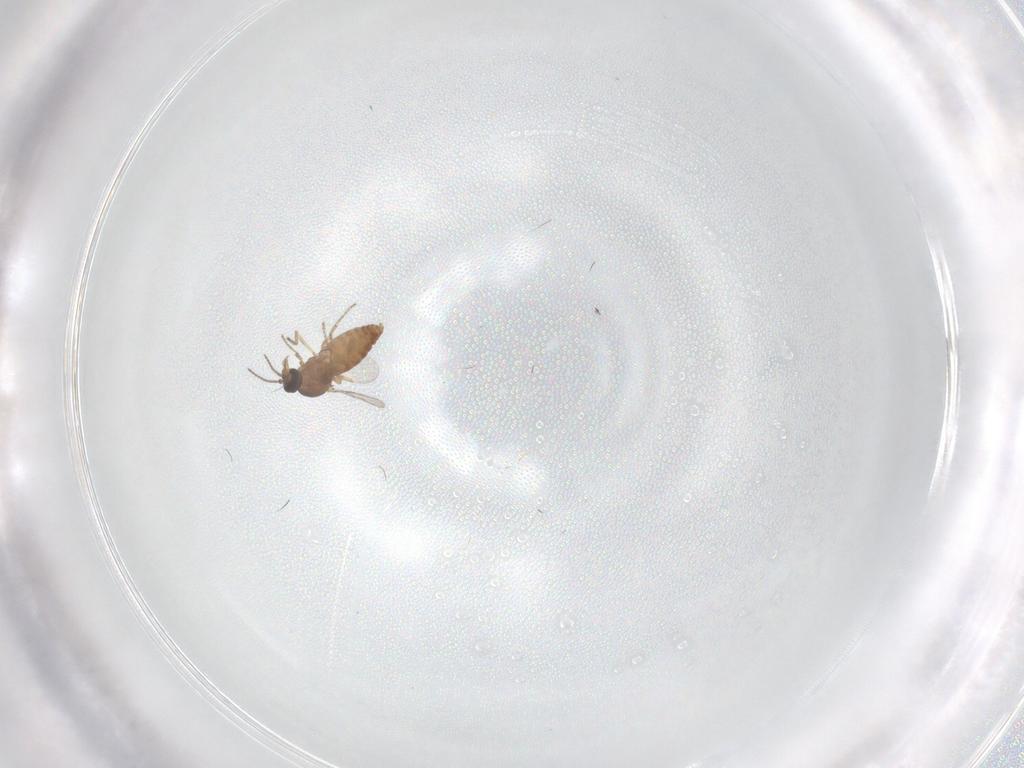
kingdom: Animalia
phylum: Arthropoda
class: Insecta
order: Diptera
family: Ceratopogonidae
